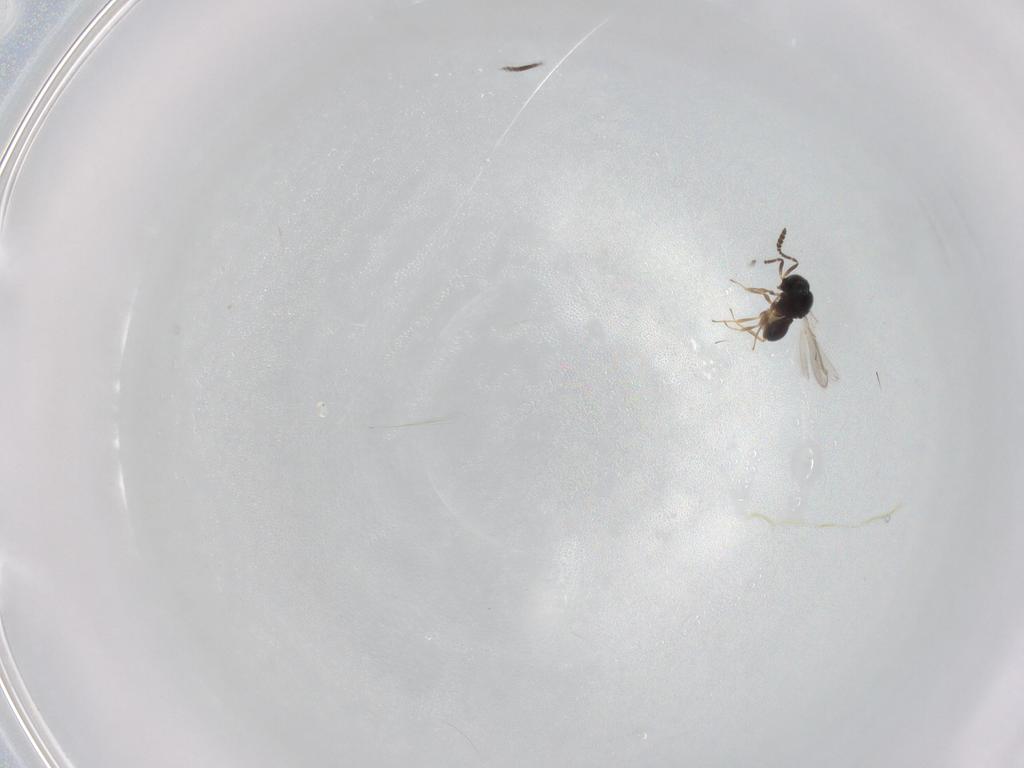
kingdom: Animalia
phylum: Arthropoda
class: Insecta
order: Hymenoptera
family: Scelionidae
